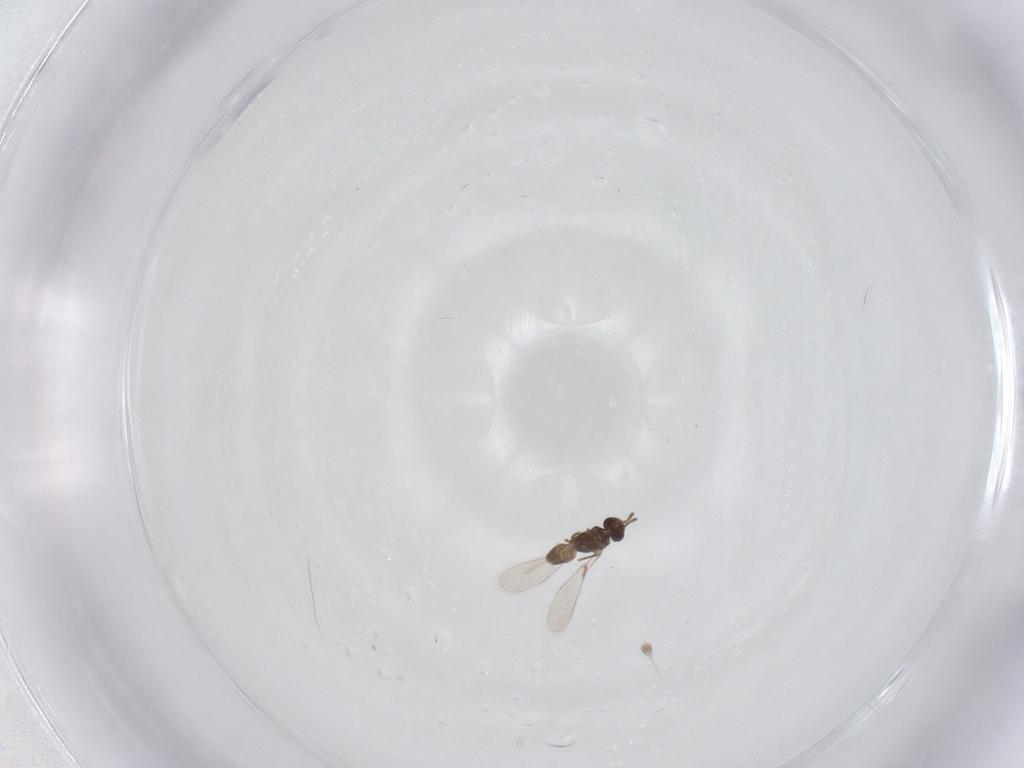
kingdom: Animalia
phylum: Arthropoda
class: Insecta
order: Hymenoptera
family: Mymaridae
